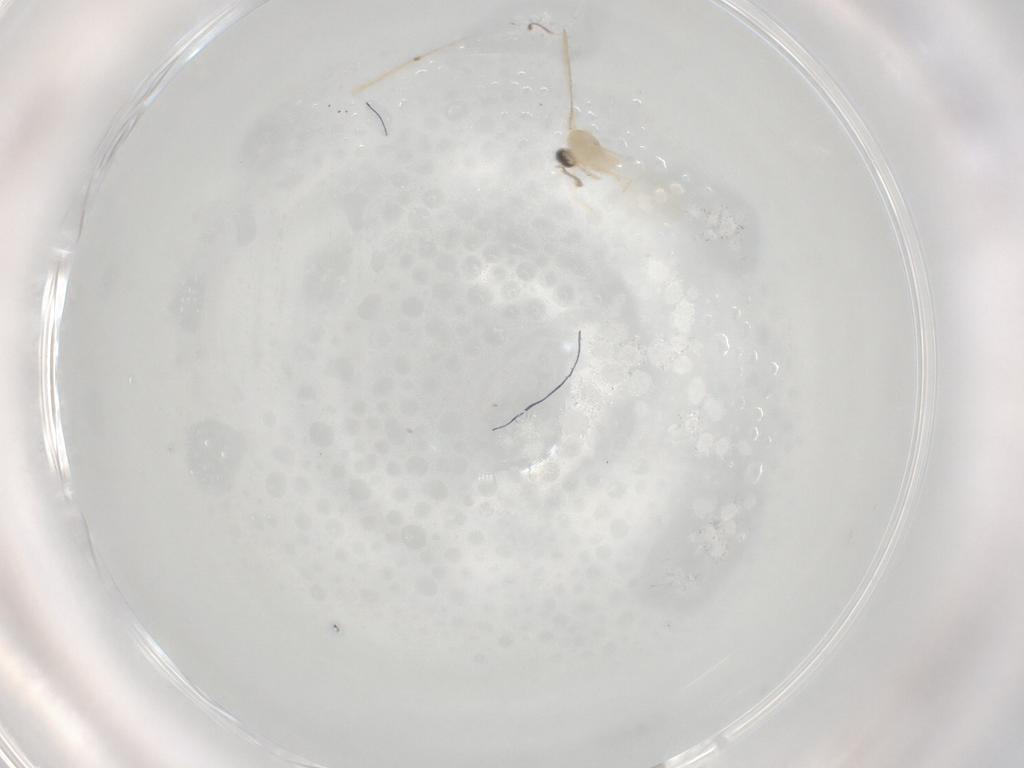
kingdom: Animalia
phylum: Arthropoda
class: Insecta
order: Diptera
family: Cecidomyiidae
